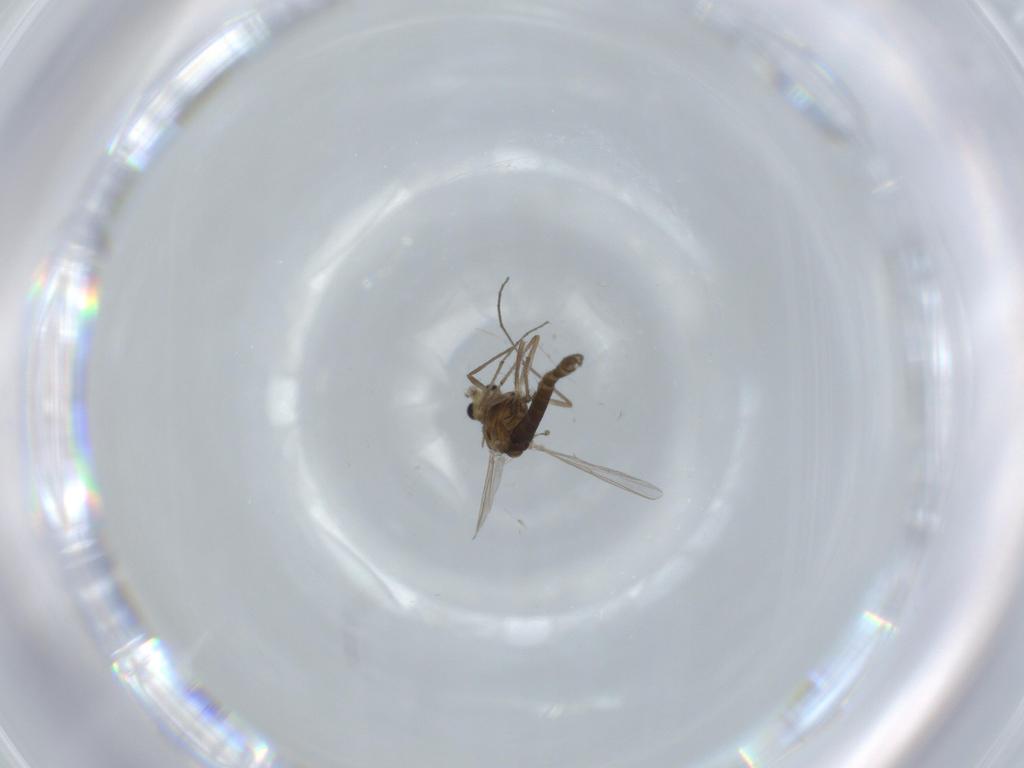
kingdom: Animalia
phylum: Arthropoda
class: Insecta
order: Diptera
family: Chironomidae
